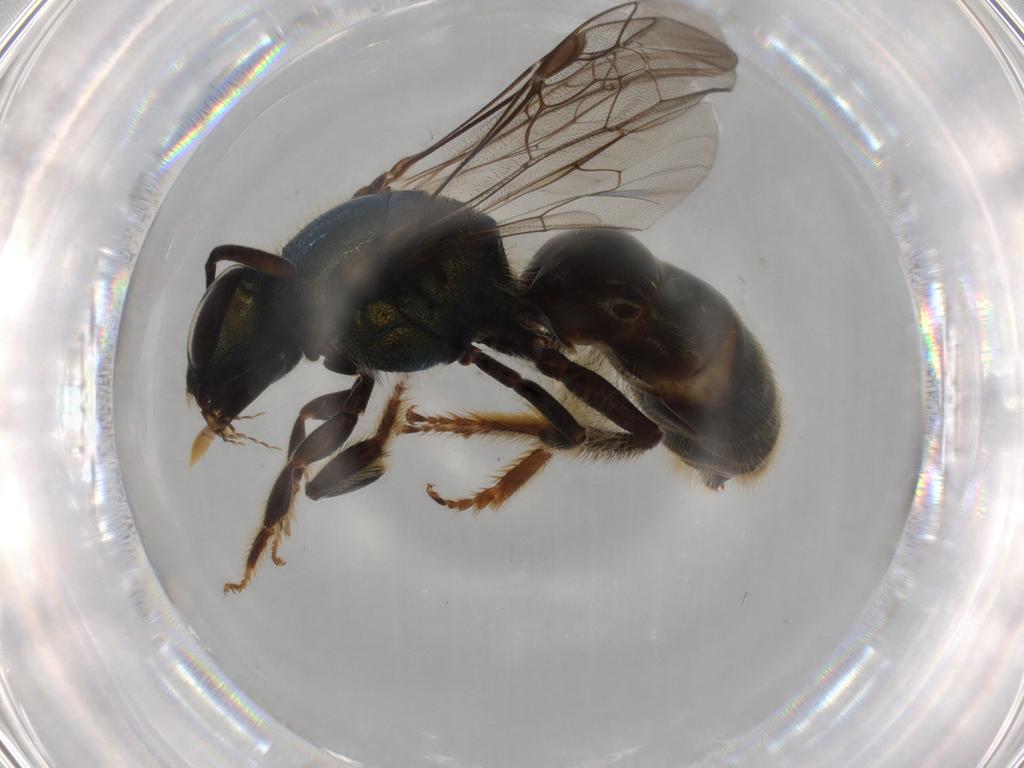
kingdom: Animalia
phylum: Arthropoda
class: Insecta
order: Hymenoptera
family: Halictidae
